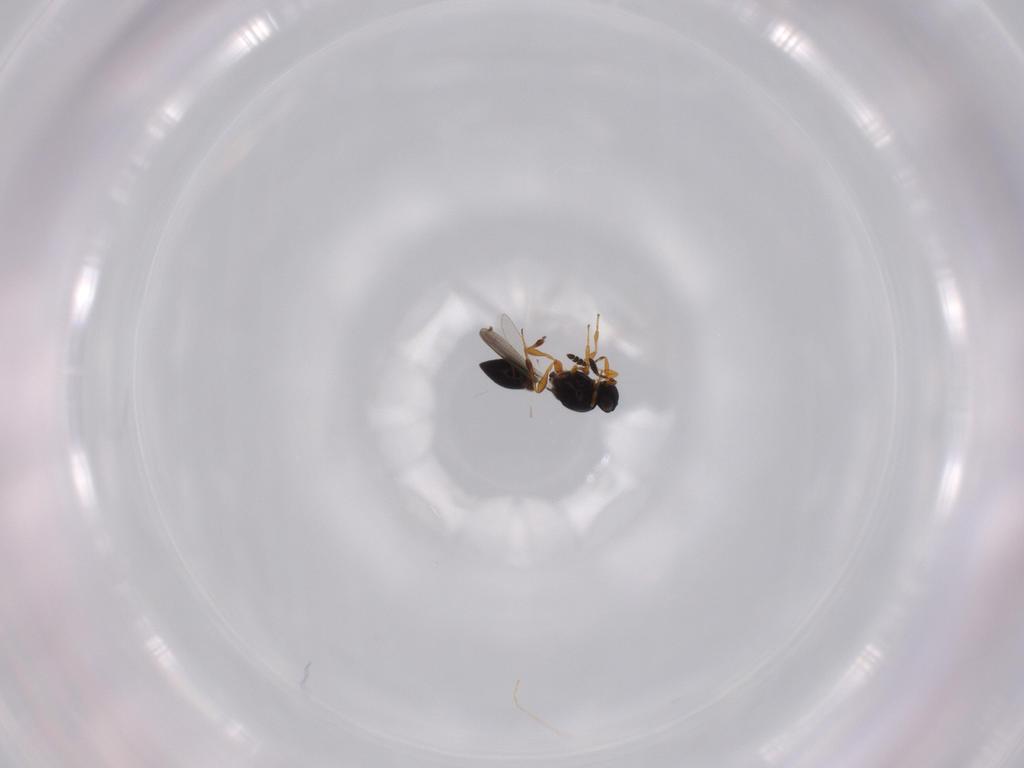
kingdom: Animalia
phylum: Arthropoda
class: Insecta
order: Hymenoptera
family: Platygastridae
